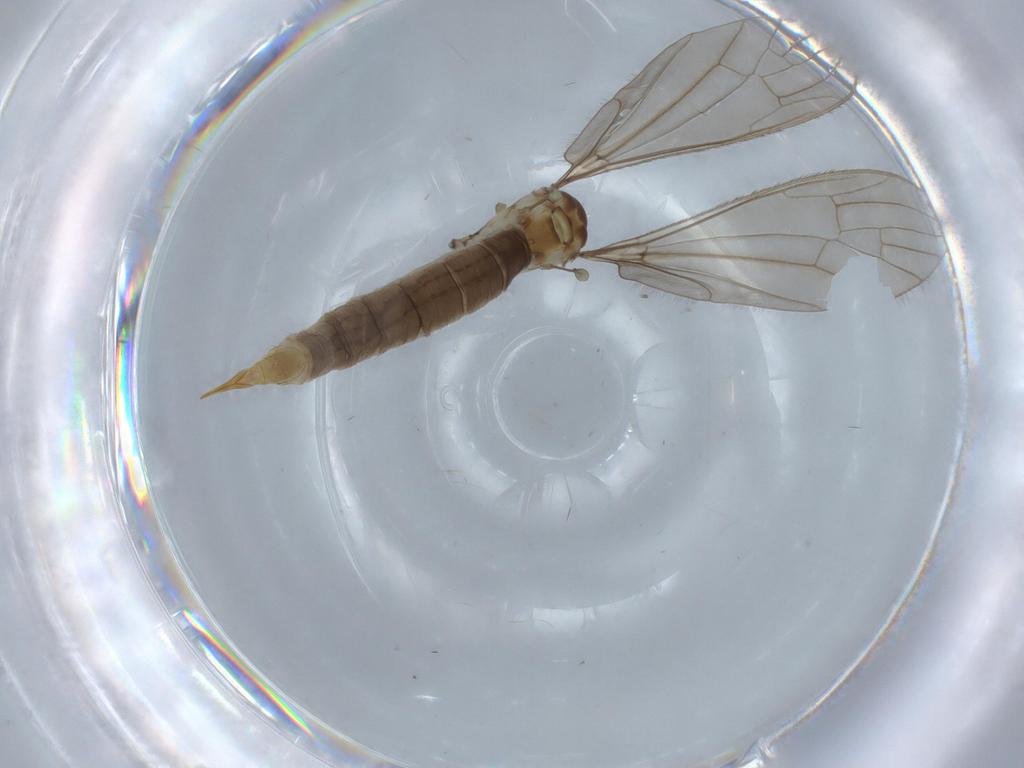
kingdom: Animalia
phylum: Arthropoda
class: Insecta
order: Diptera
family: Sciaridae
